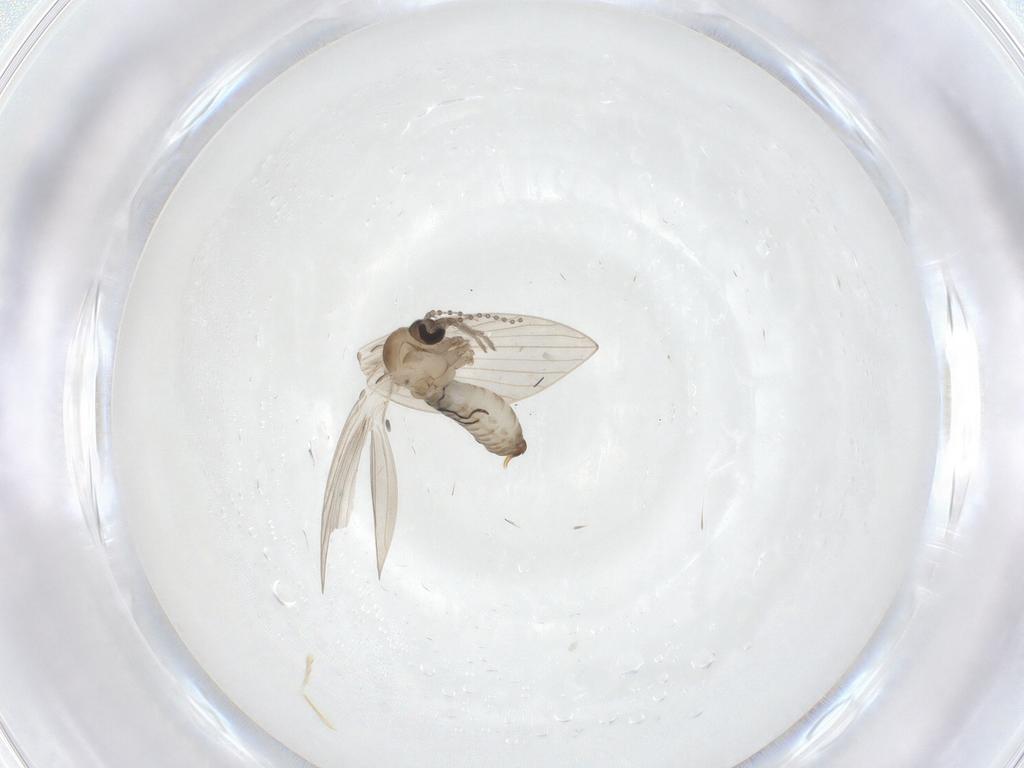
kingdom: Animalia
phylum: Arthropoda
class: Insecta
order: Diptera
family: Psychodidae
